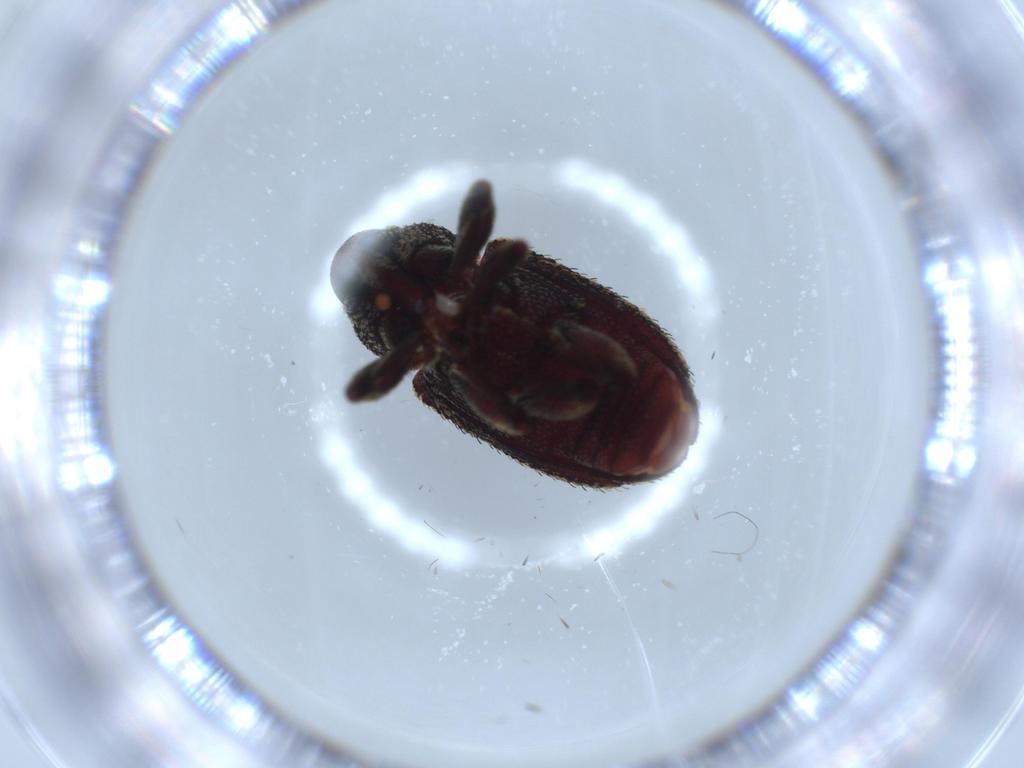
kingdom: Animalia
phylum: Arthropoda
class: Insecta
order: Coleoptera
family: Curculionidae
